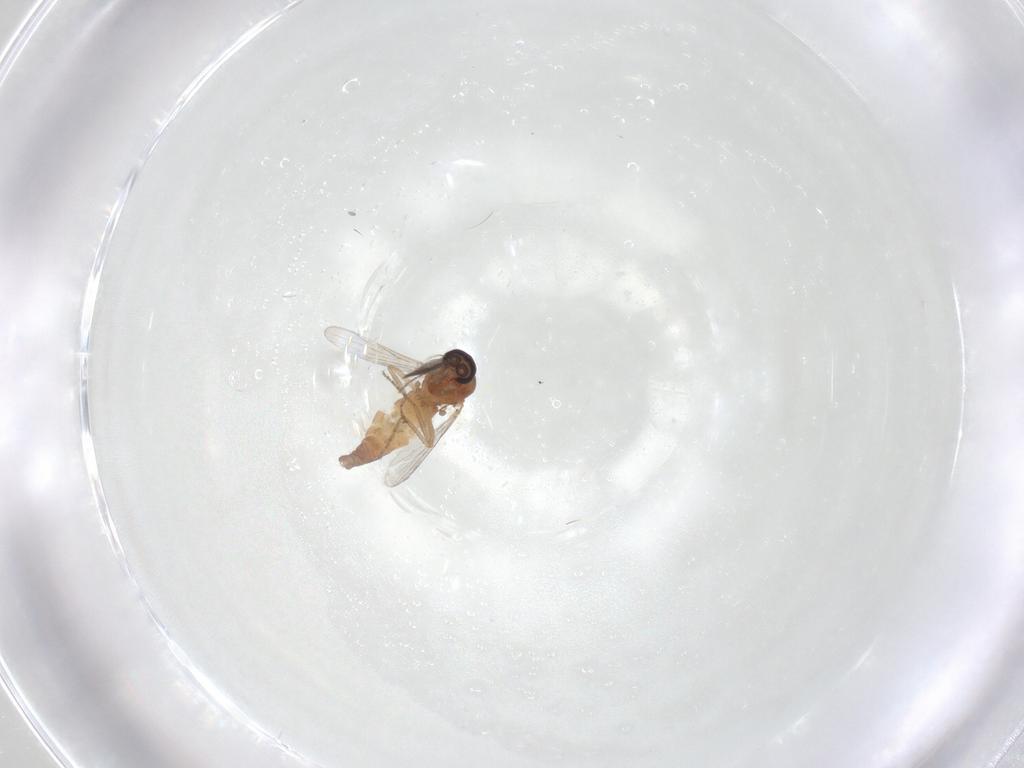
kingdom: Animalia
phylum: Arthropoda
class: Insecta
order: Diptera
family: Ceratopogonidae
